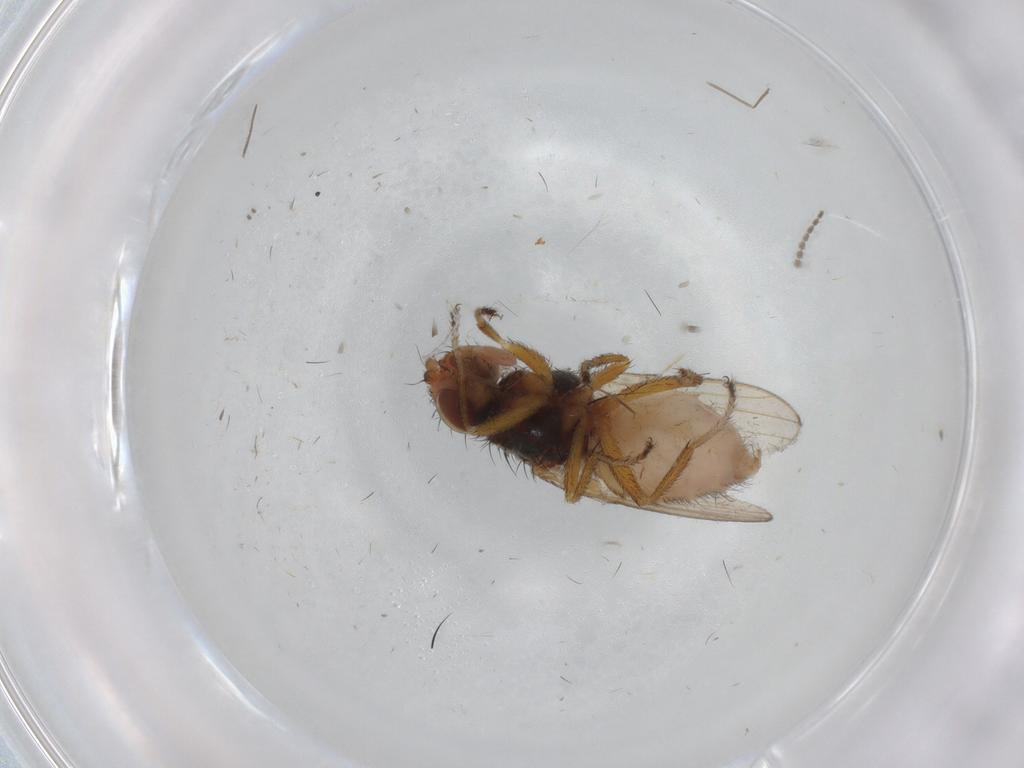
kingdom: Animalia
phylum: Arthropoda
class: Insecta
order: Diptera
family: Canacidae
